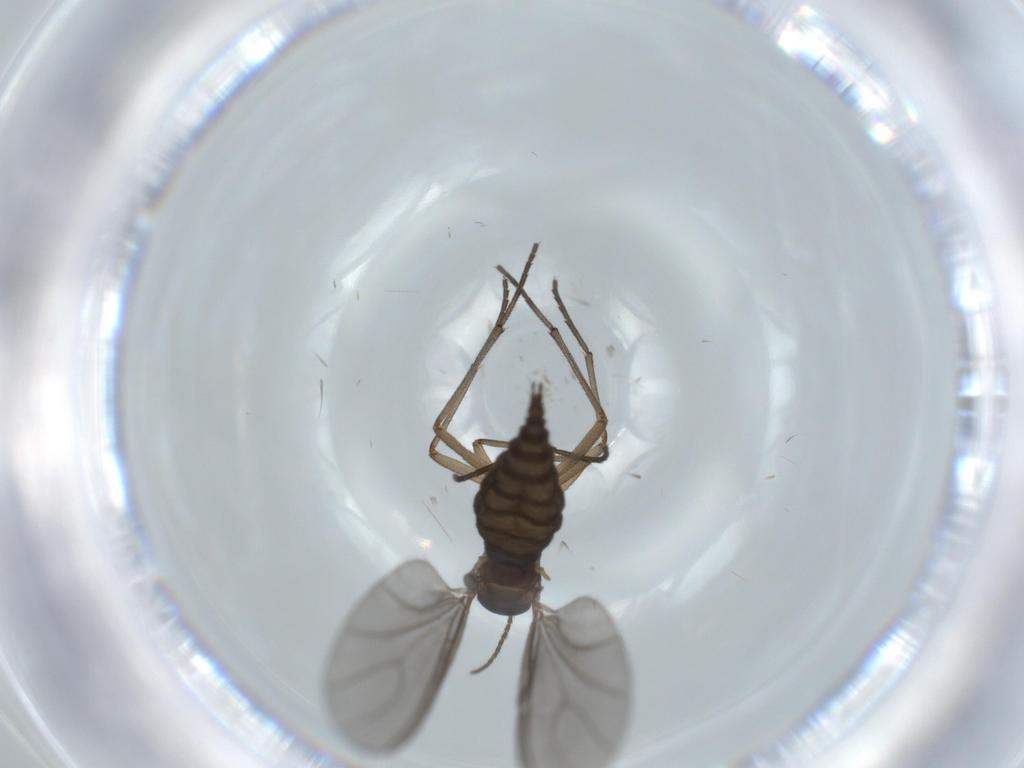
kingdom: Animalia
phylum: Arthropoda
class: Insecta
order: Diptera
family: Sciaridae
